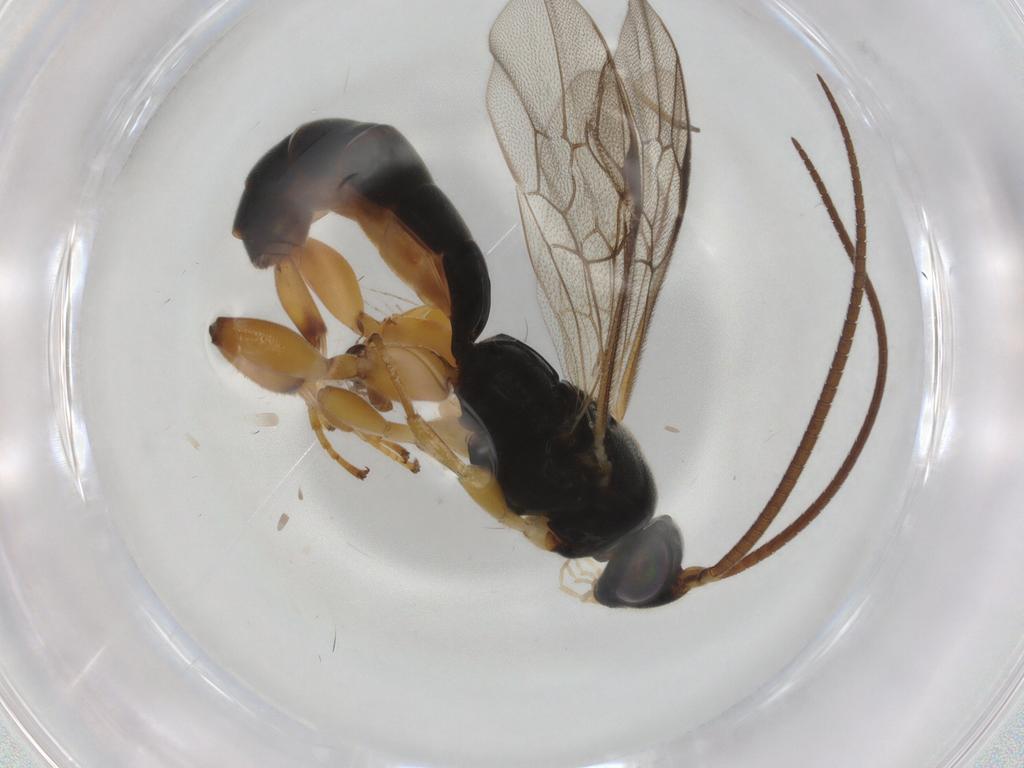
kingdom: Animalia
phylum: Arthropoda
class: Insecta
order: Hymenoptera
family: Ichneumonidae
